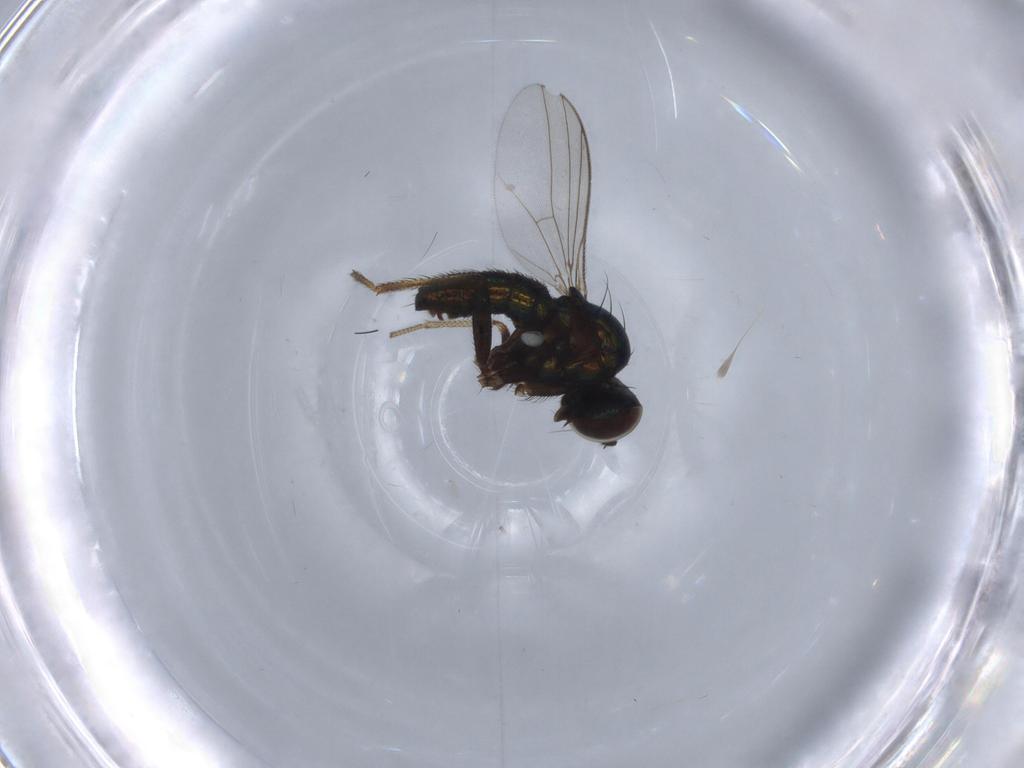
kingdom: Animalia
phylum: Arthropoda
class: Insecta
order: Diptera
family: Dolichopodidae
